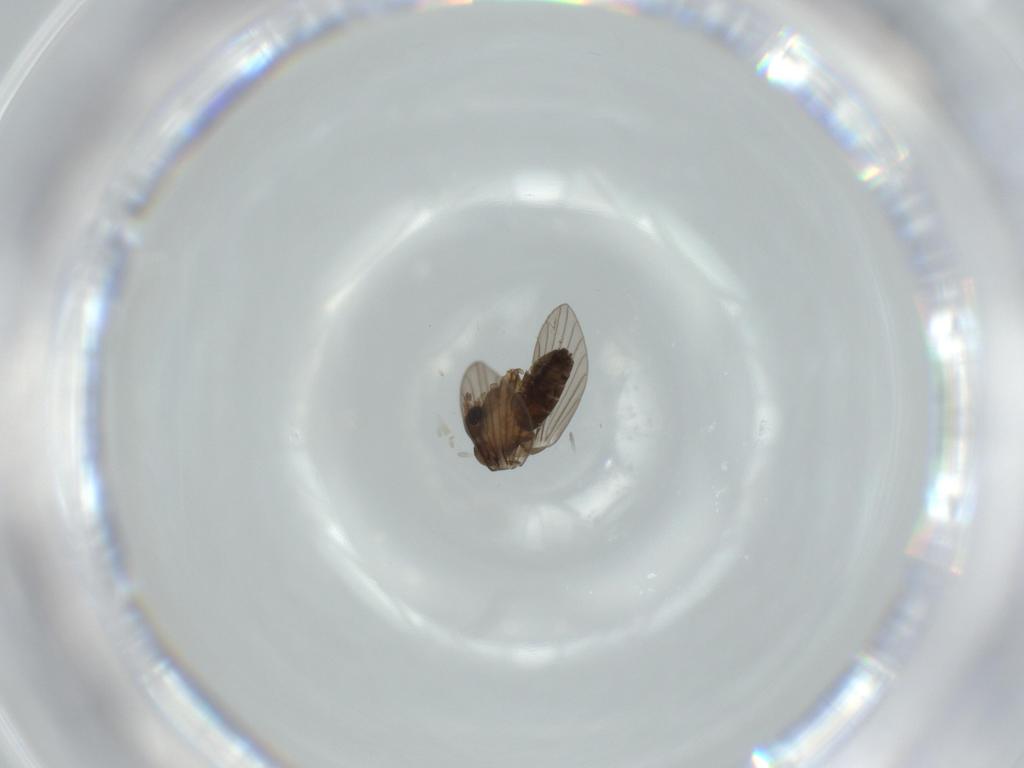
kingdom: Animalia
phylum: Arthropoda
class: Insecta
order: Diptera
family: Psychodidae
